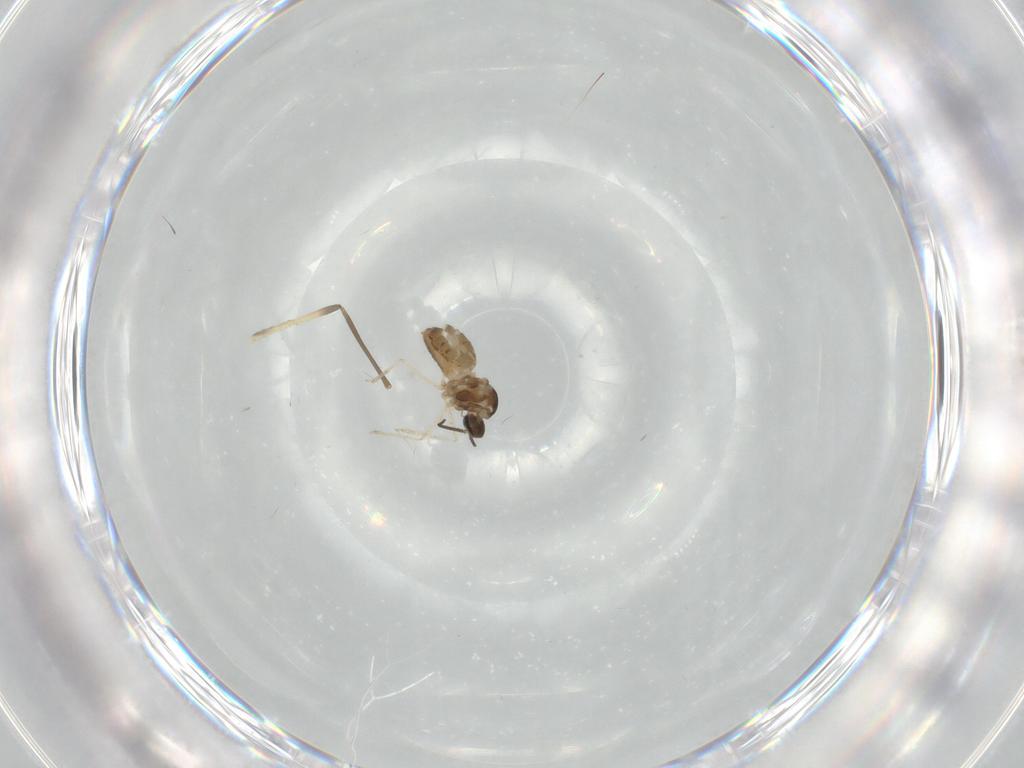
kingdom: Animalia
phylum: Arthropoda
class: Insecta
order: Diptera
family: Chironomidae
